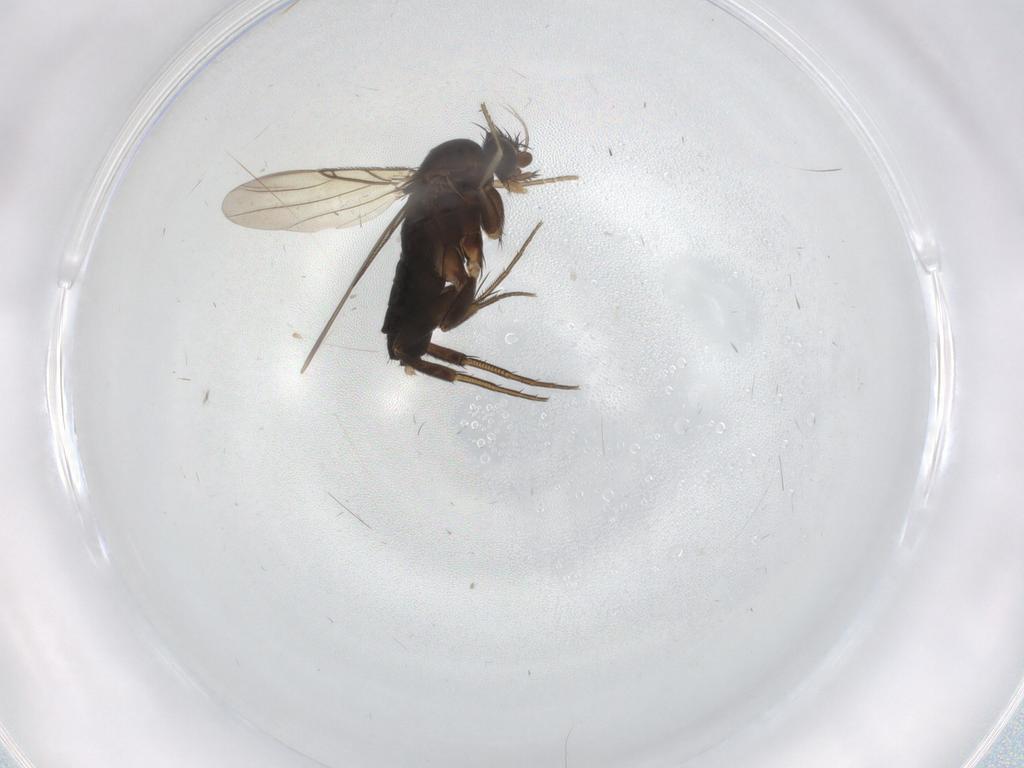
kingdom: Animalia
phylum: Arthropoda
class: Insecta
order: Diptera
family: Phoridae
